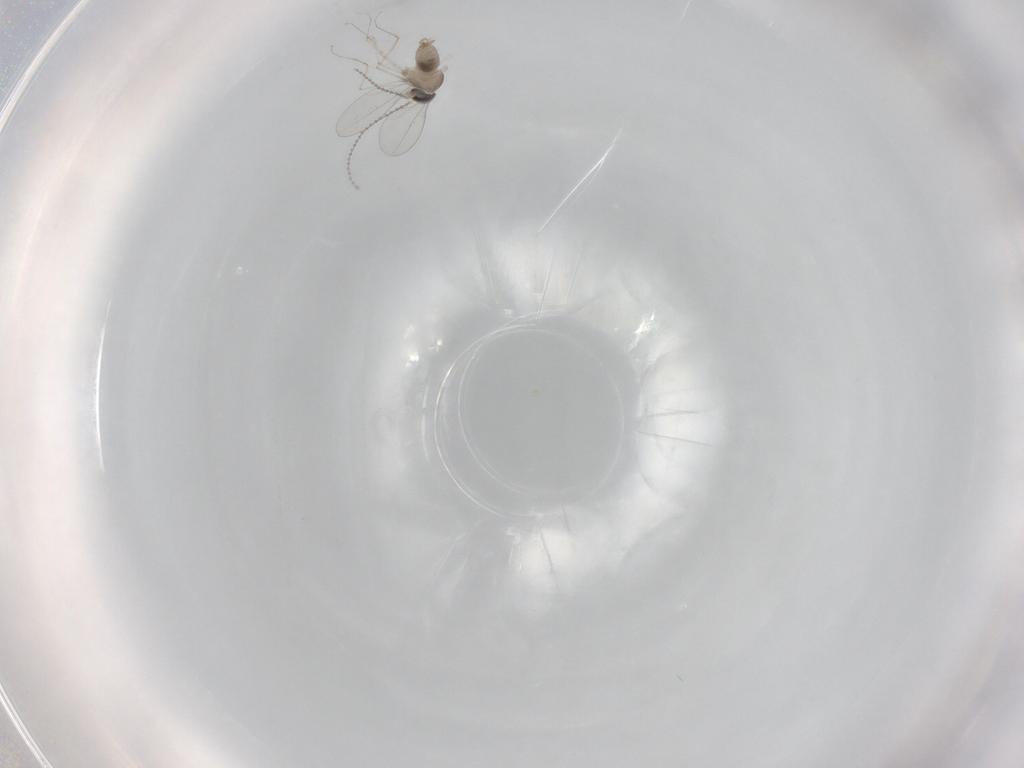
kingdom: Animalia
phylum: Arthropoda
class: Insecta
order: Diptera
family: Cecidomyiidae
